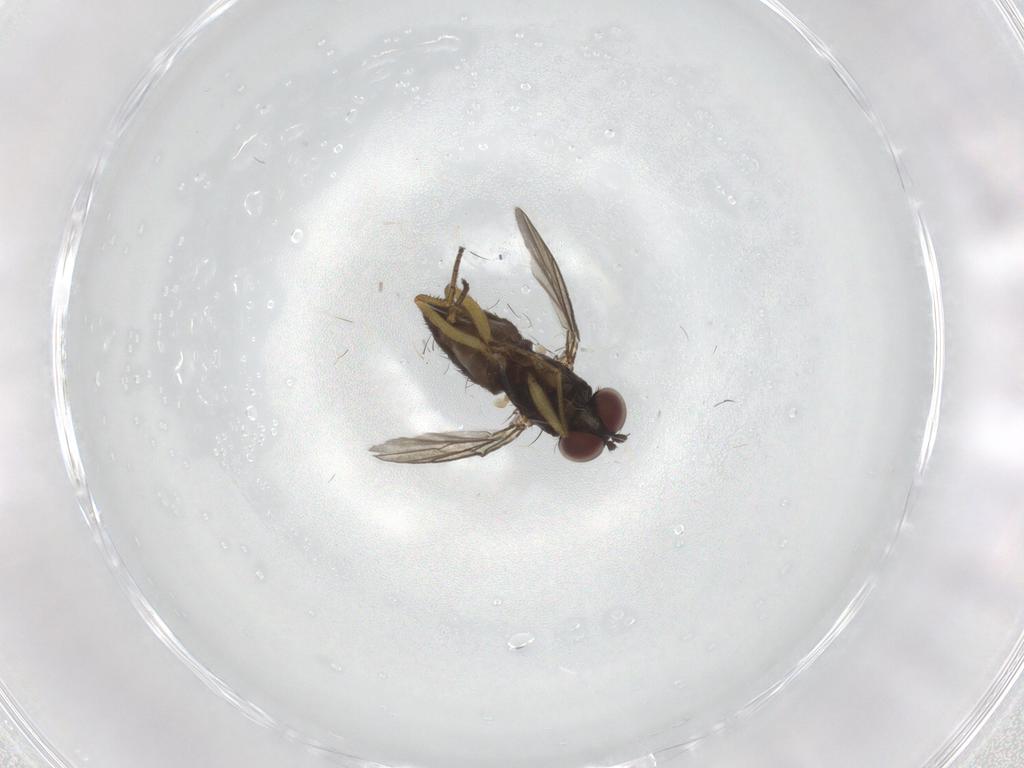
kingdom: Animalia
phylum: Arthropoda
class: Insecta
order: Diptera
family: Dolichopodidae
